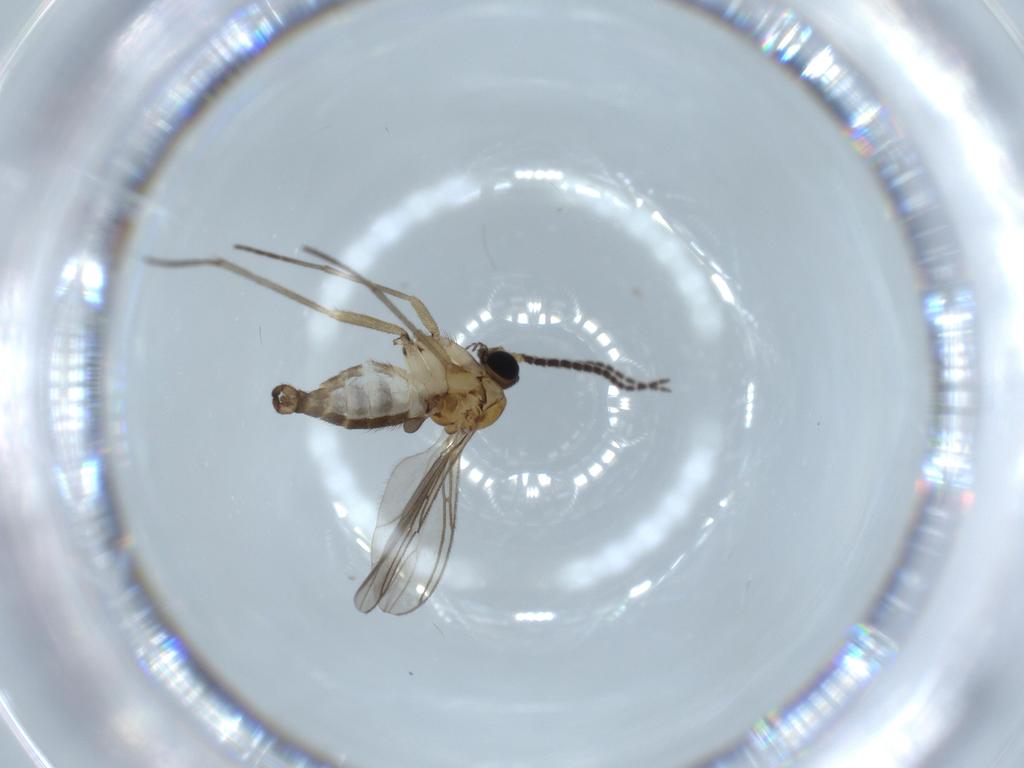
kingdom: Animalia
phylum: Arthropoda
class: Insecta
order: Diptera
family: Sciaridae
